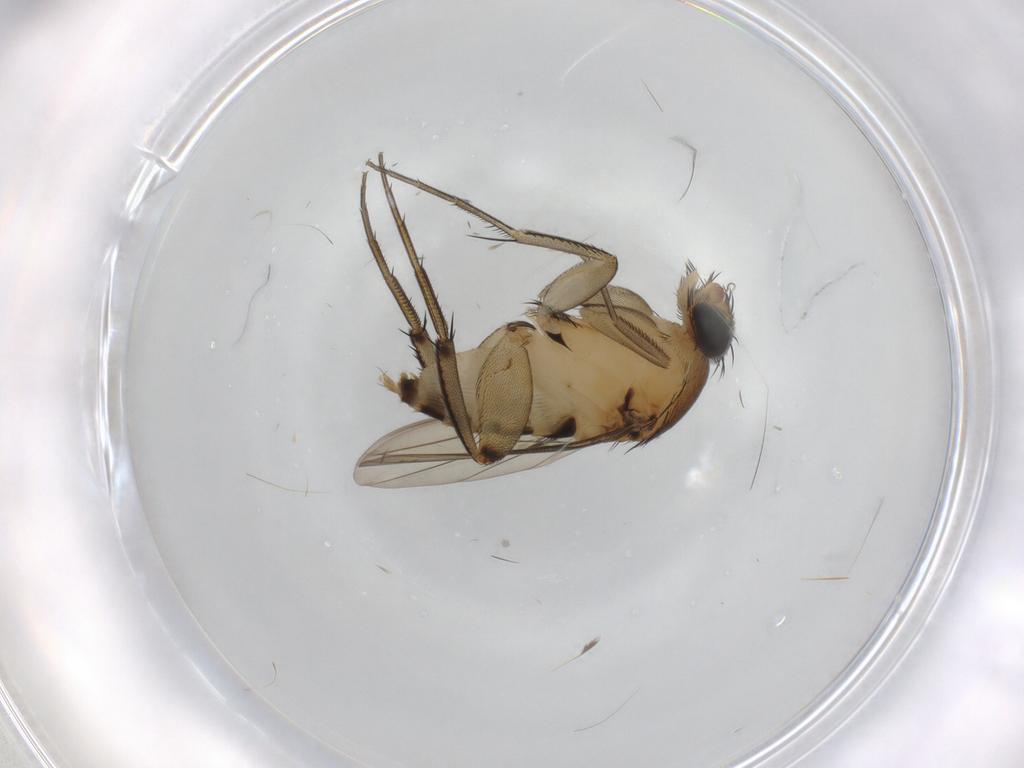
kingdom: Animalia
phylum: Arthropoda
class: Insecta
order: Diptera
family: Phoridae
